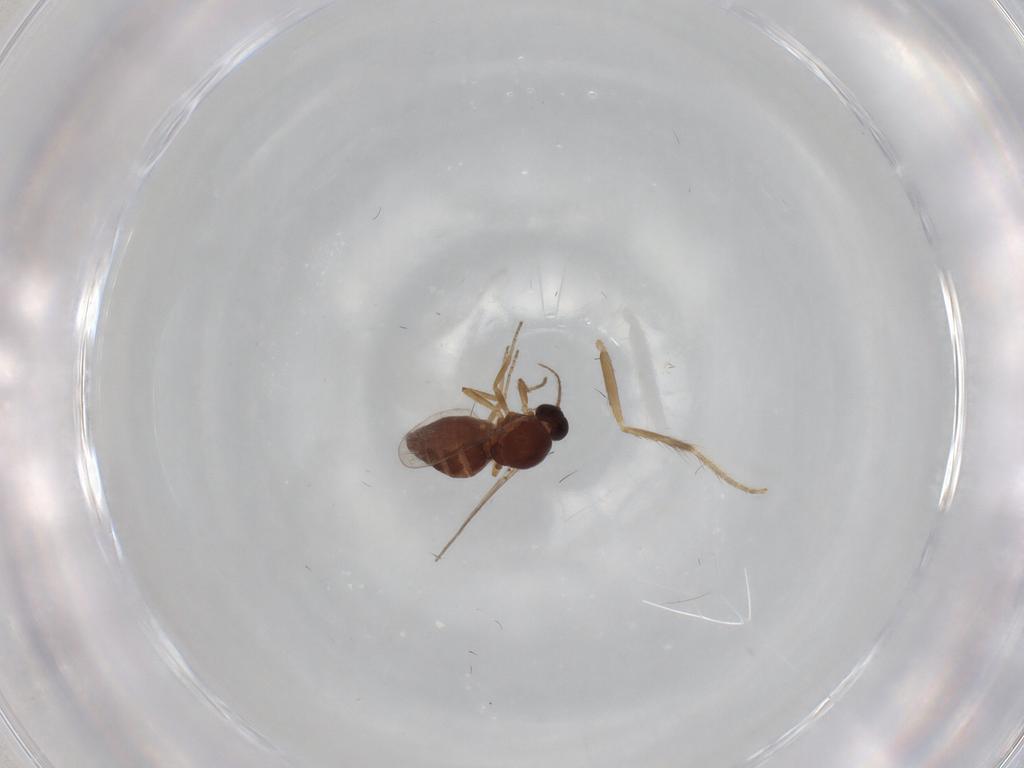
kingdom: Animalia
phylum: Arthropoda
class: Insecta
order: Diptera
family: Ceratopogonidae
